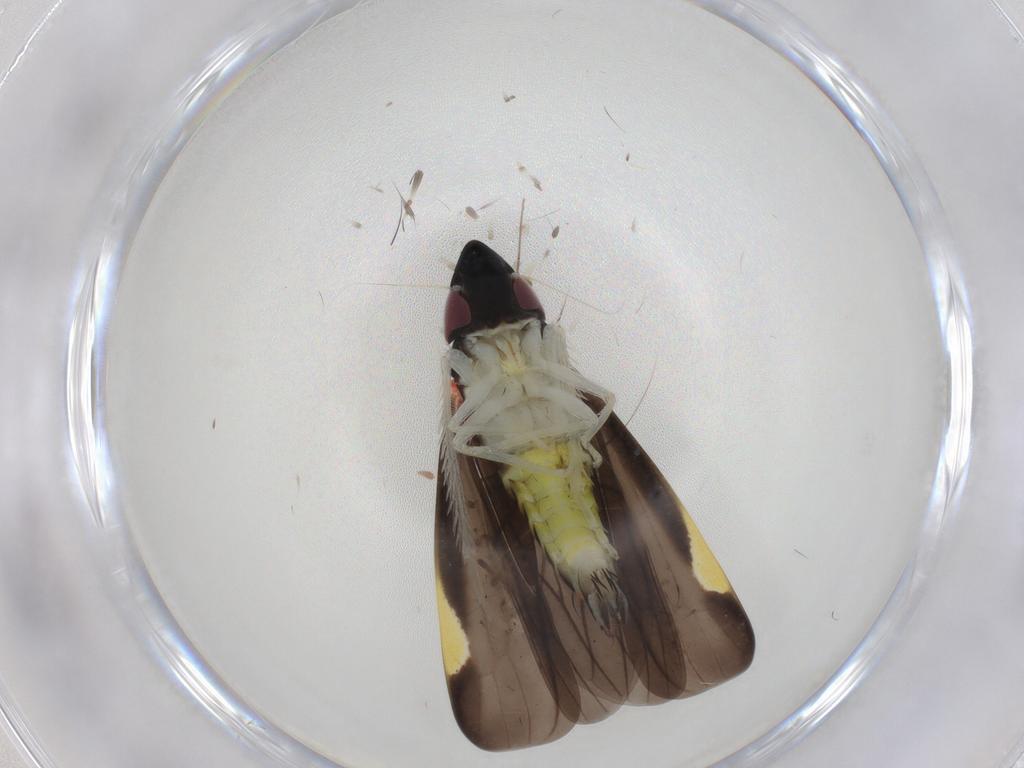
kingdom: Animalia
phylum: Arthropoda
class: Insecta
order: Hemiptera
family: Cicadellidae
